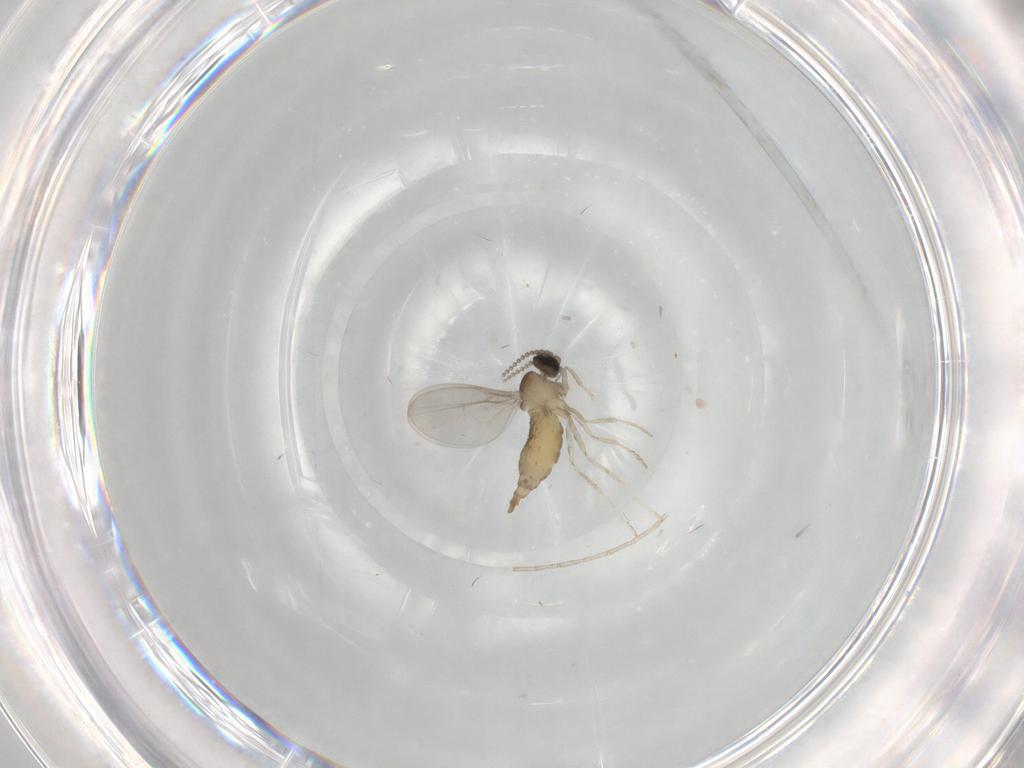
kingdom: Animalia
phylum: Arthropoda
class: Insecta
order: Diptera
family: Cecidomyiidae
